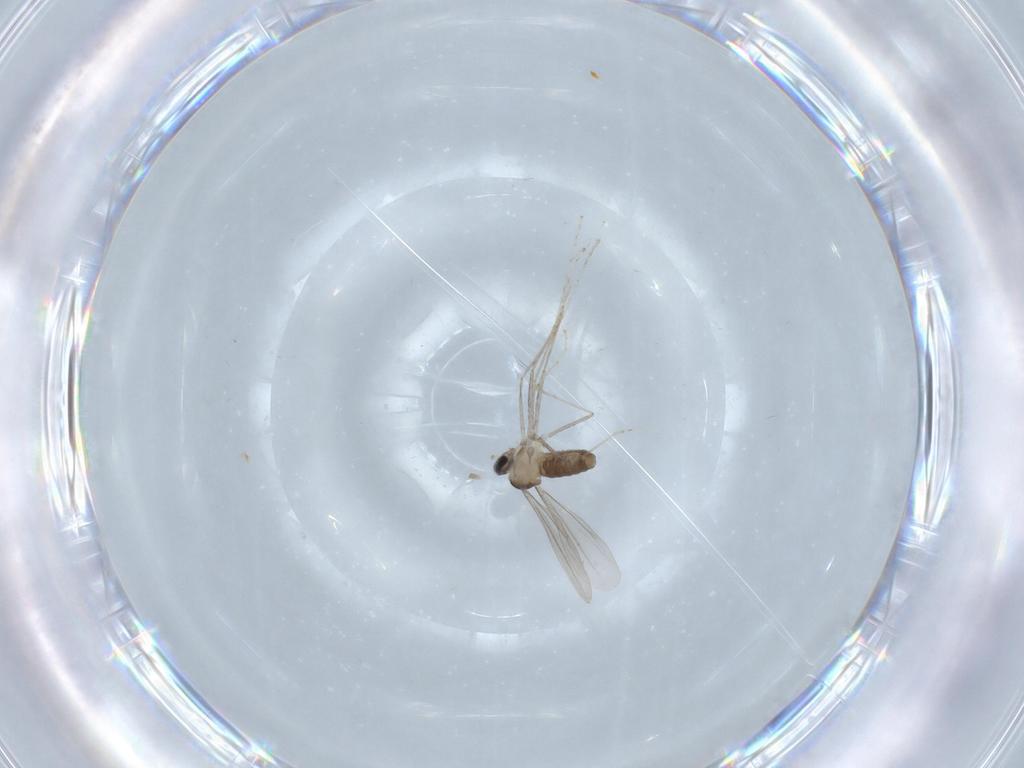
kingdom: Animalia
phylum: Arthropoda
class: Insecta
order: Diptera
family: Cecidomyiidae
